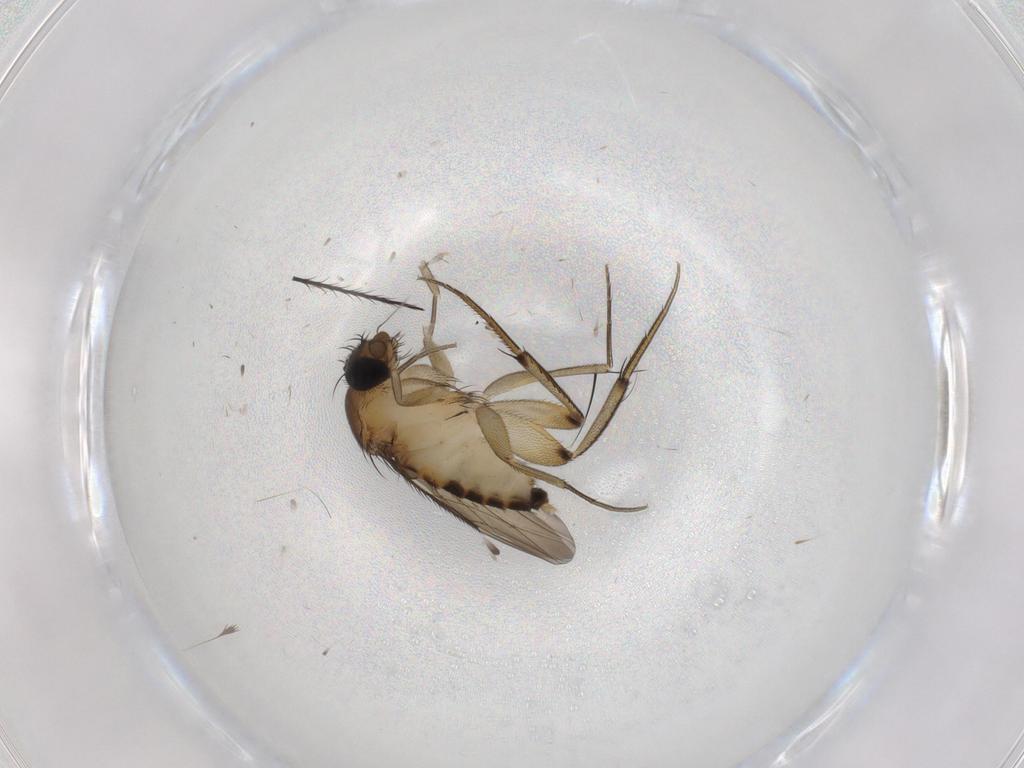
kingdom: Animalia
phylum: Arthropoda
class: Insecta
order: Diptera
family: Phoridae
